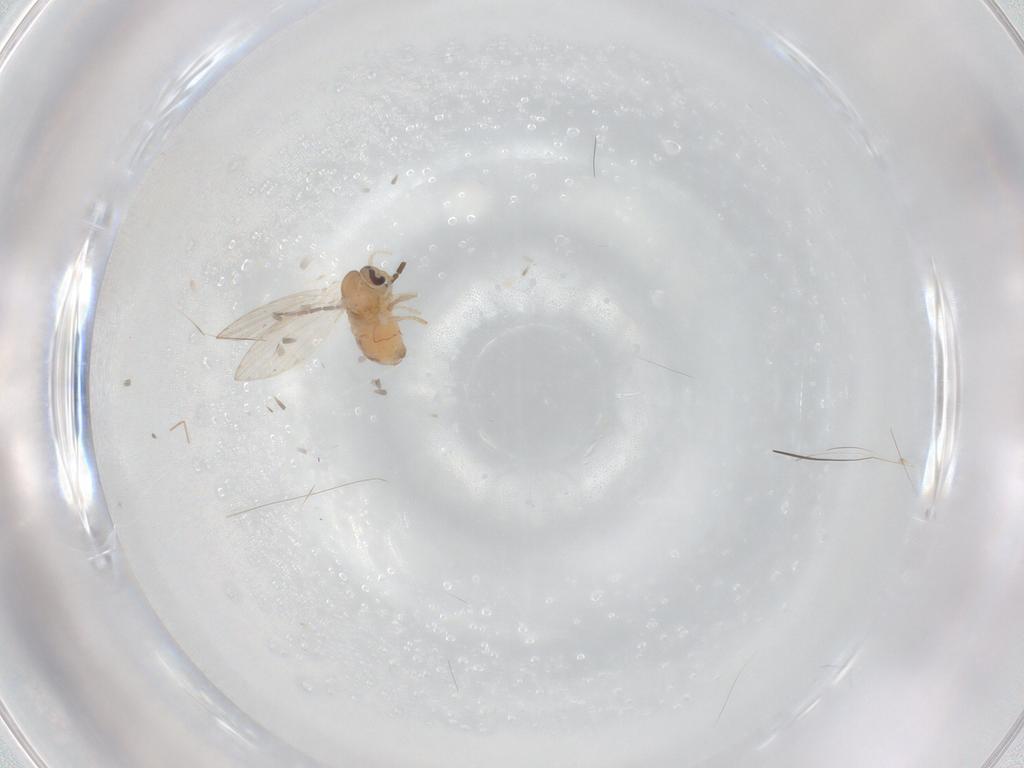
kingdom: Animalia
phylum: Arthropoda
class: Insecta
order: Diptera
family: Psychodidae
